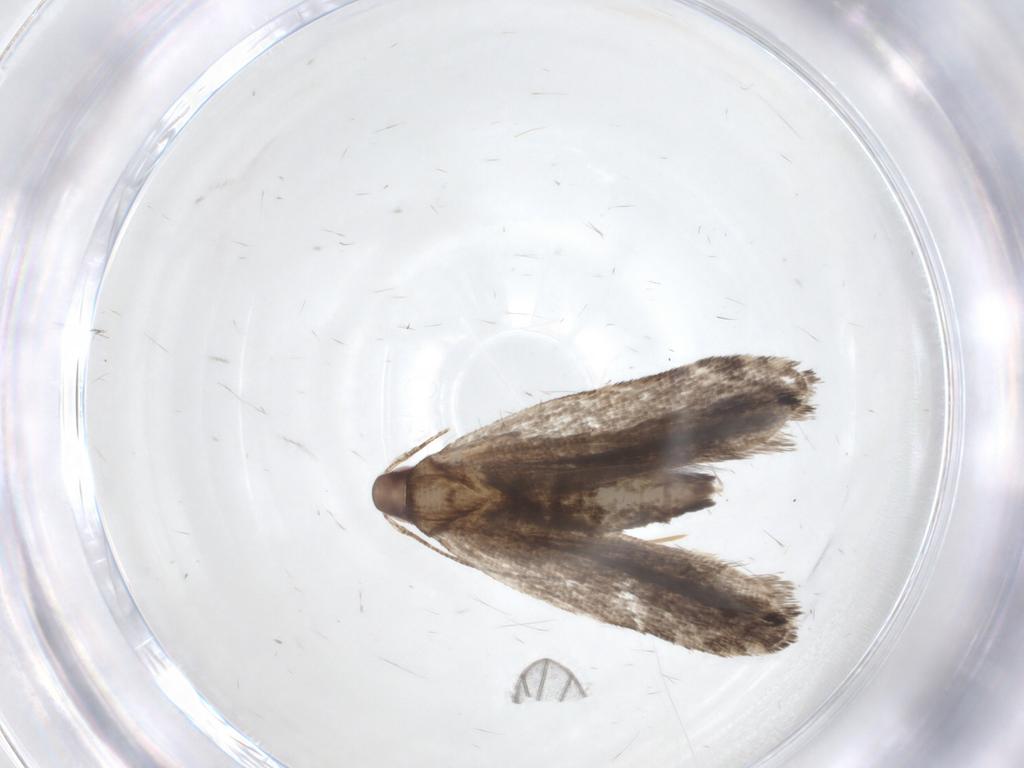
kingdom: Animalia
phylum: Arthropoda
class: Insecta
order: Lepidoptera
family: Gelechiidae
